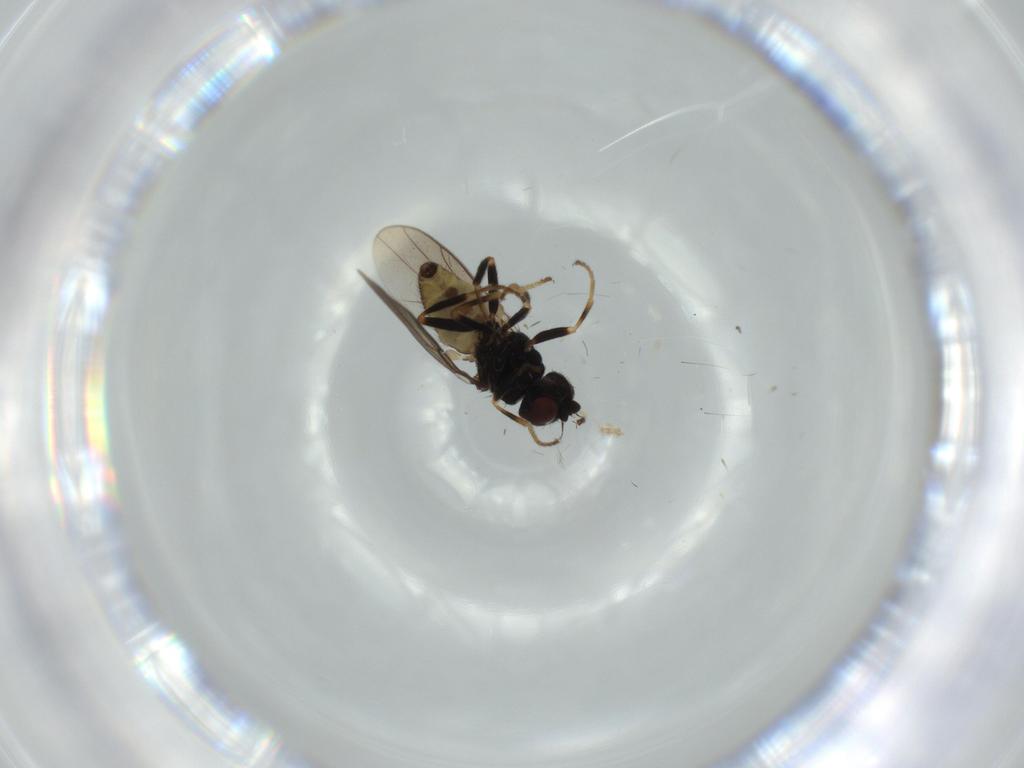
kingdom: Animalia
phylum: Arthropoda
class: Insecta
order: Diptera
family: Chloropidae
